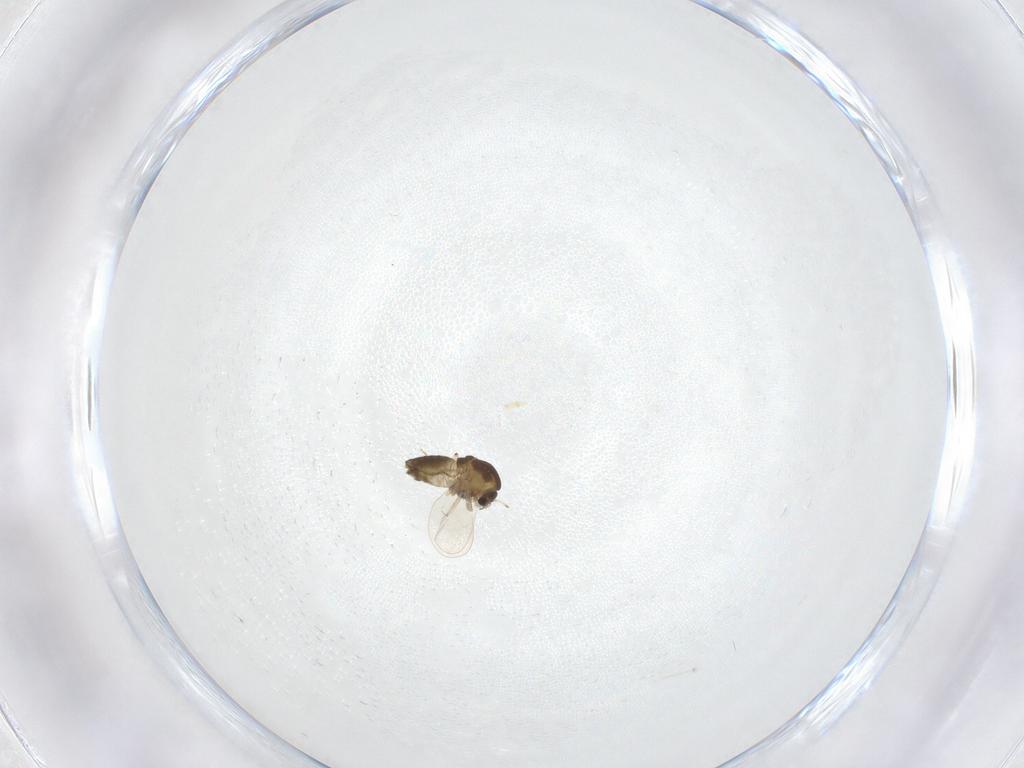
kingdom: Animalia
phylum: Arthropoda
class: Insecta
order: Diptera
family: Chironomidae
